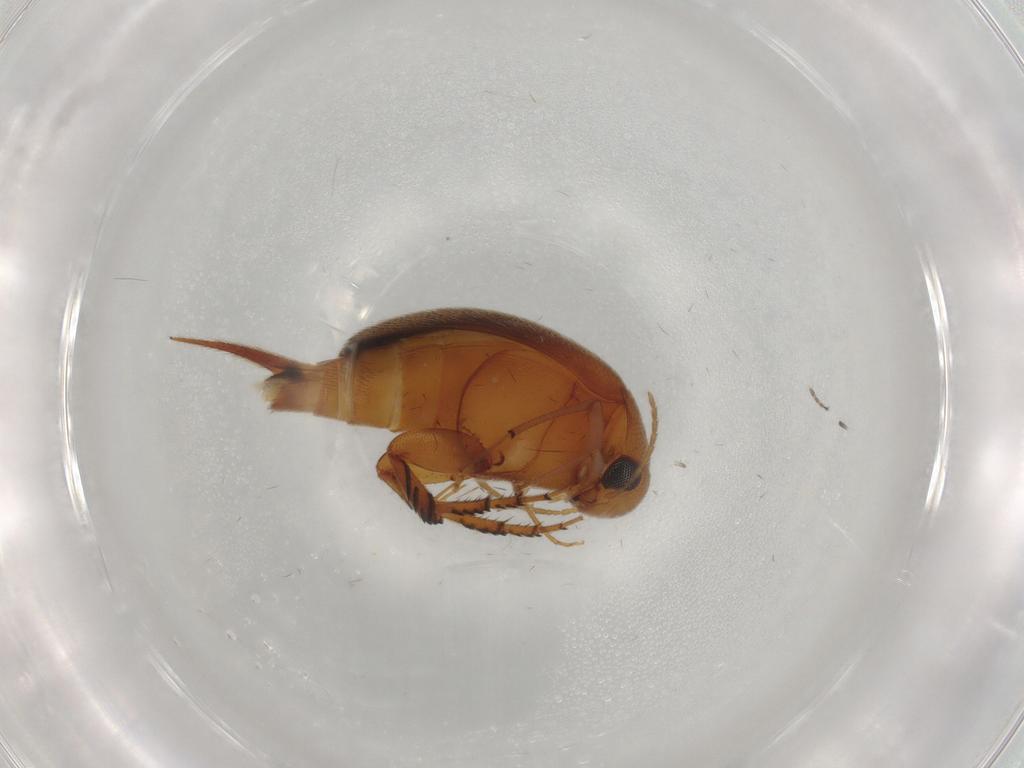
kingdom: Animalia
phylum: Arthropoda
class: Insecta
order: Coleoptera
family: Mordellidae
